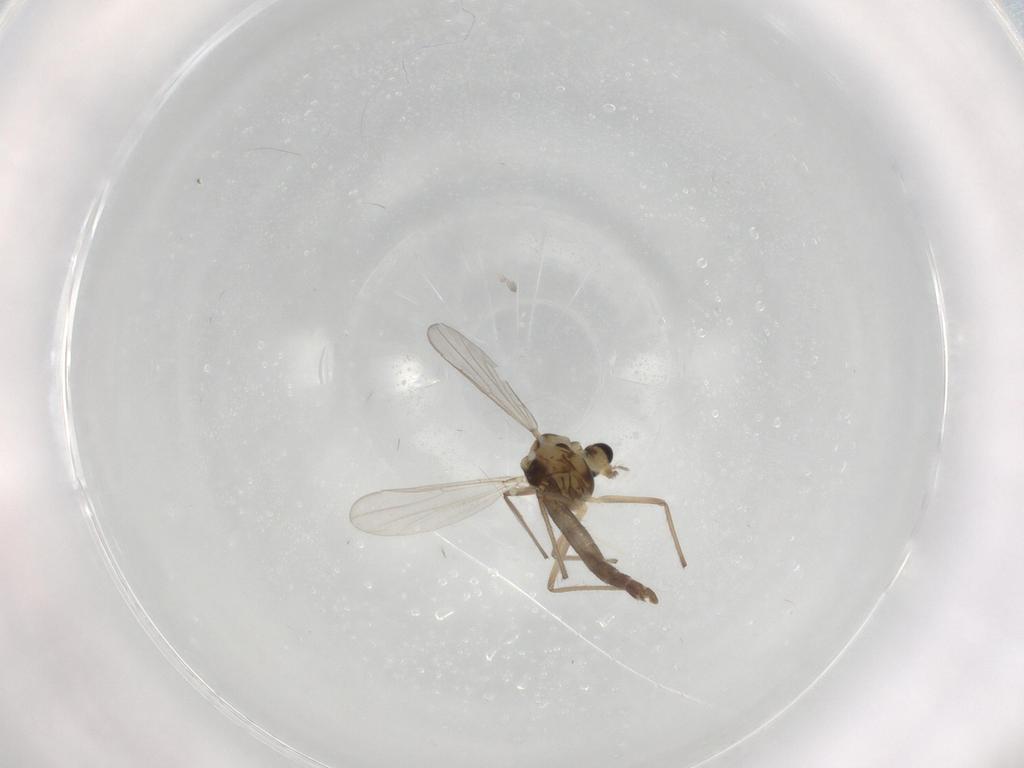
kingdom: Animalia
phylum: Arthropoda
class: Insecta
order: Diptera
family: Chironomidae
